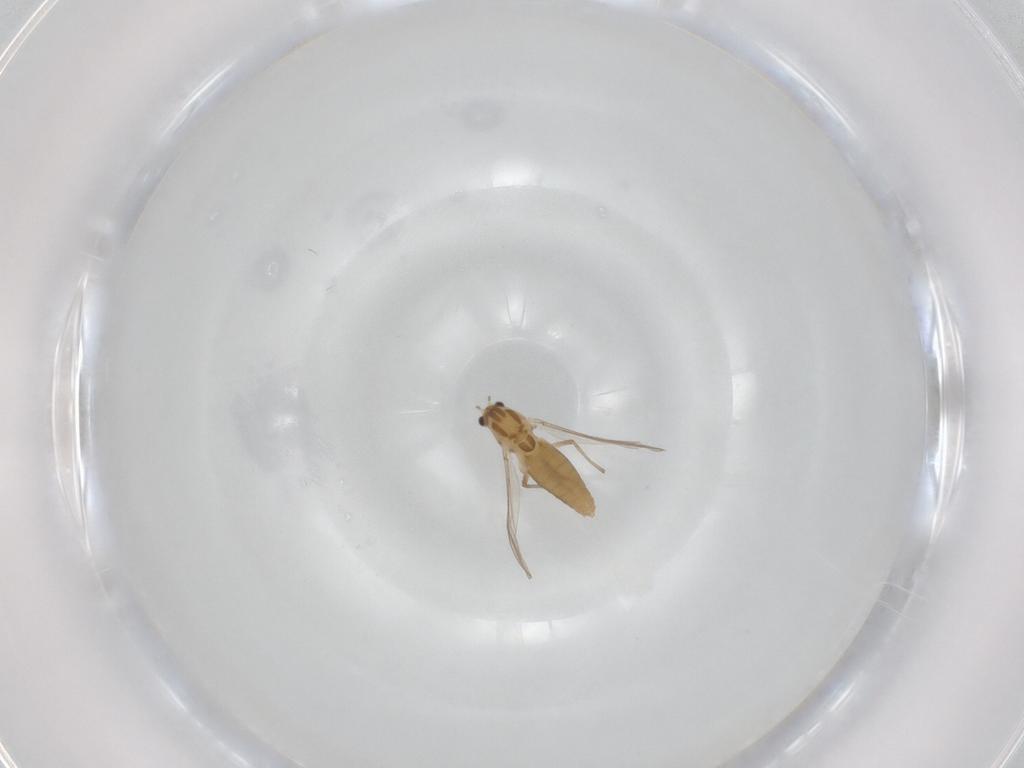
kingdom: Animalia
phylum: Arthropoda
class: Insecta
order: Diptera
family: Chironomidae
